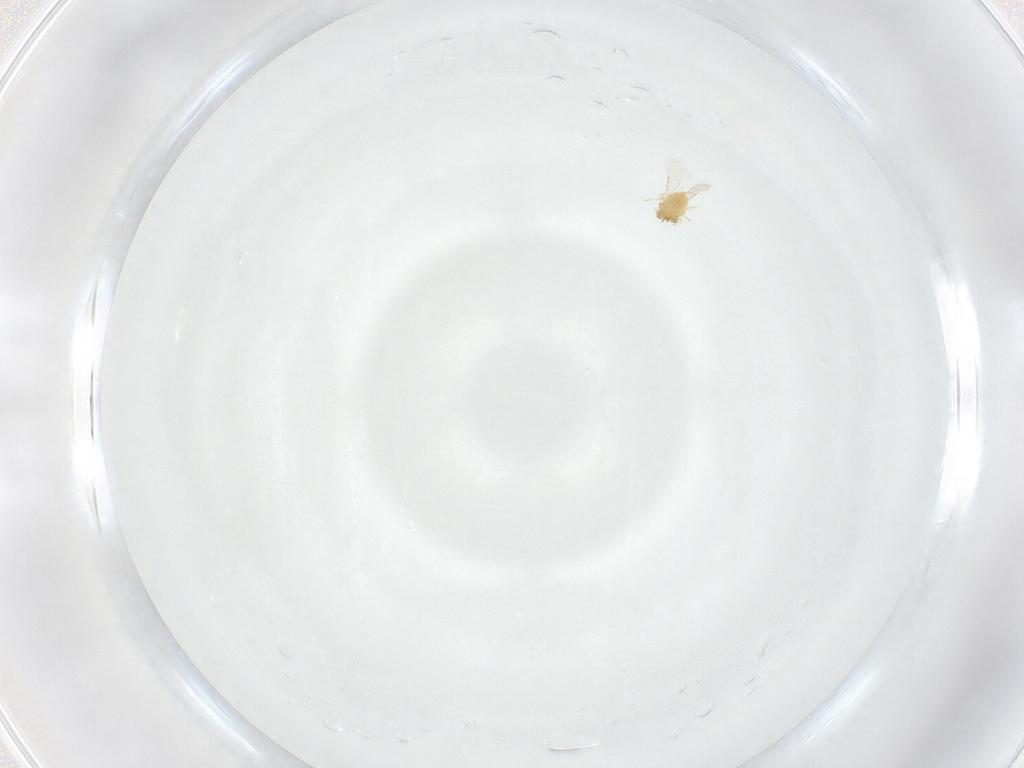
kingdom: Animalia
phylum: Arthropoda
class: Insecta
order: Hymenoptera
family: Aphelinidae
